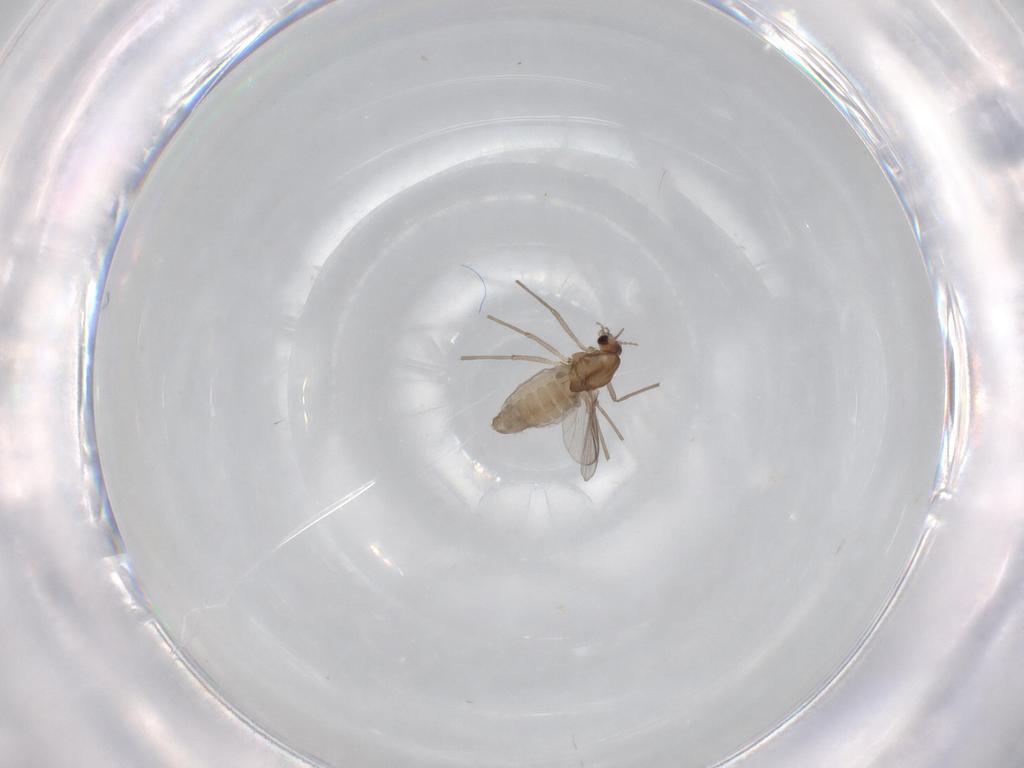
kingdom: Animalia
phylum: Arthropoda
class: Insecta
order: Diptera
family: Chironomidae
